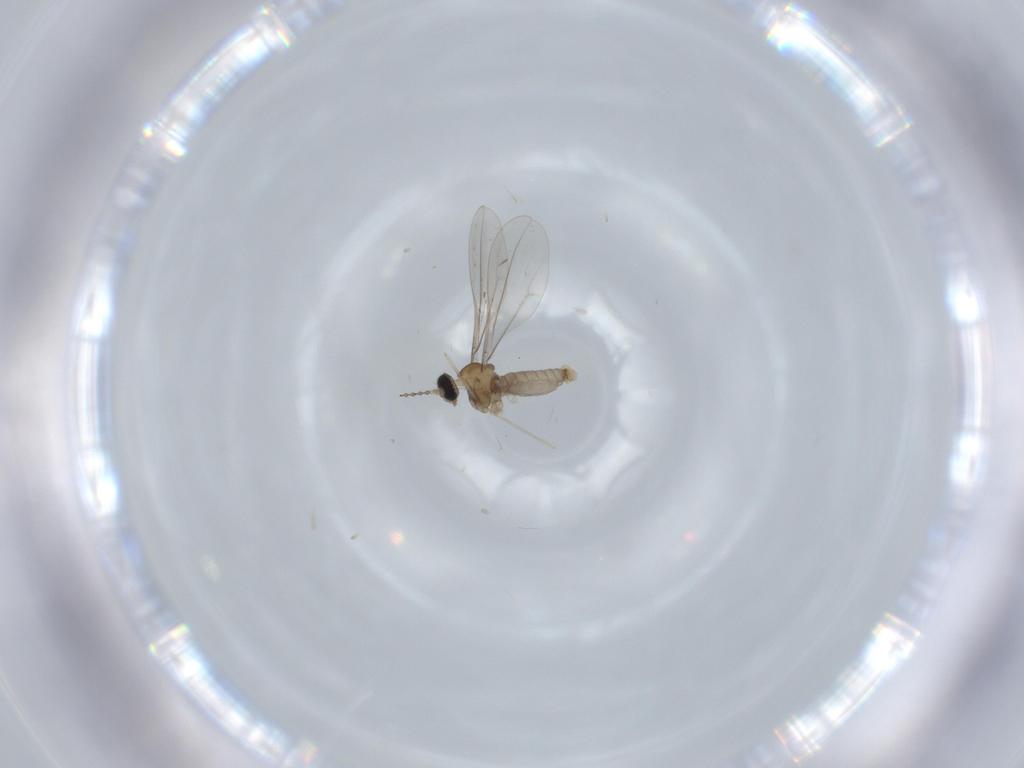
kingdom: Animalia
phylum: Arthropoda
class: Insecta
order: Diptera
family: Cecidomyiidae
